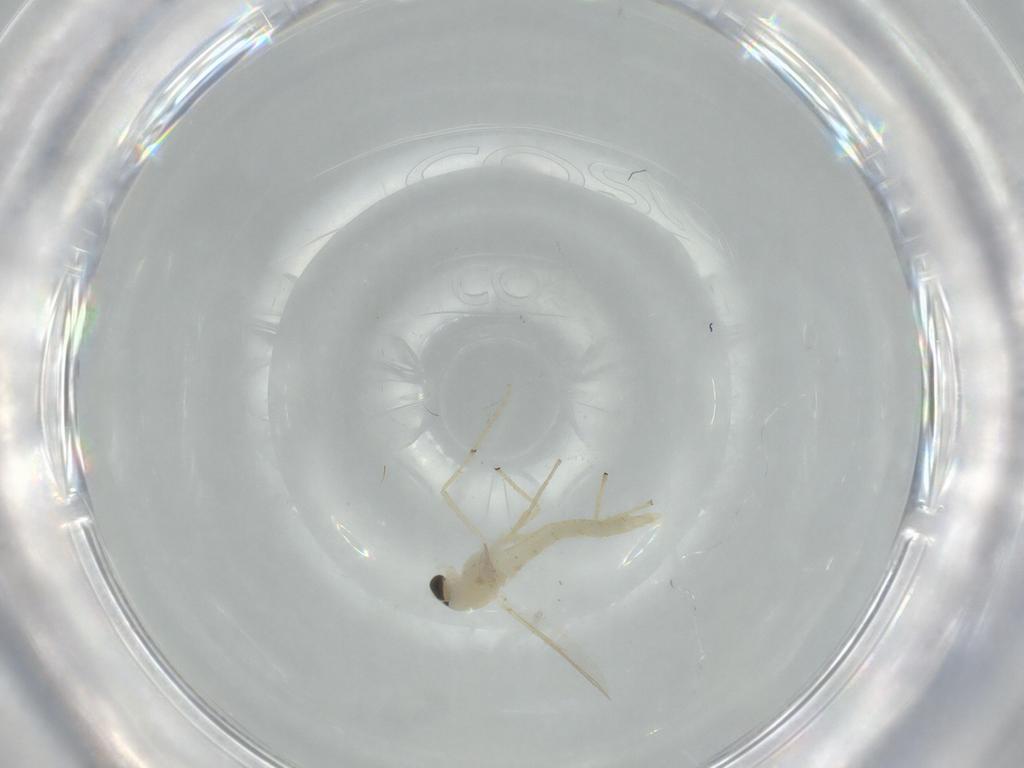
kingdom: Animalia
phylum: Arthropoda
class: Insecta
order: Diptera
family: Chironomidae
